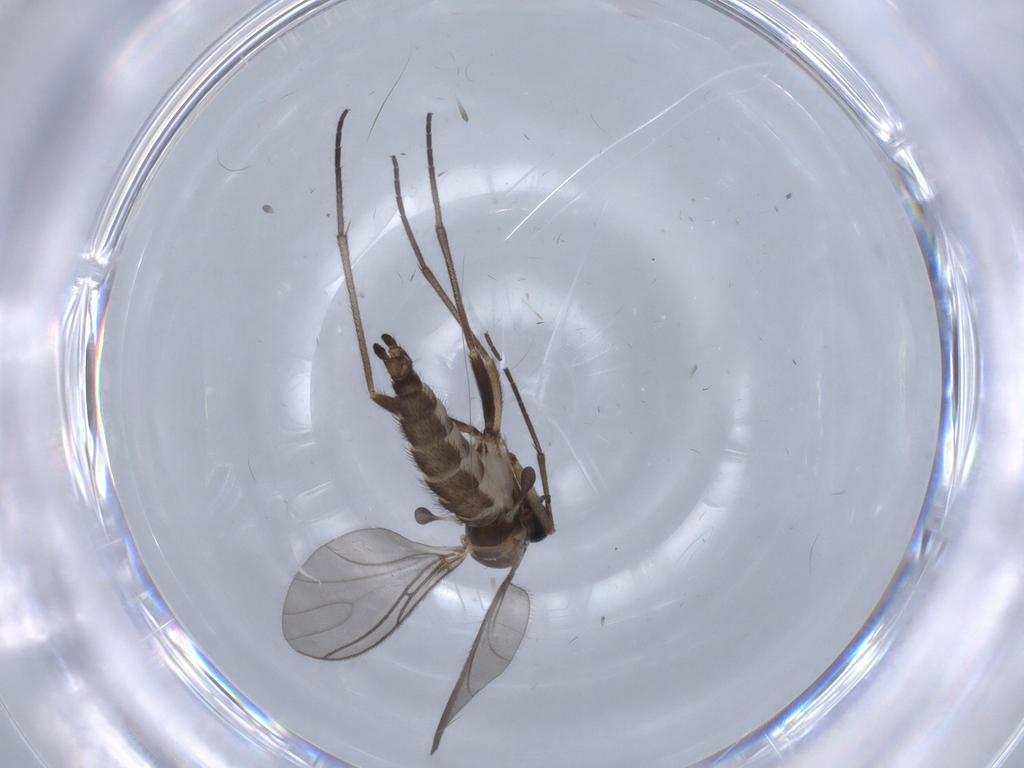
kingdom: Animalia
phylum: Arthropoda
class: Insecta
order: Diptera
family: Sciaridae
